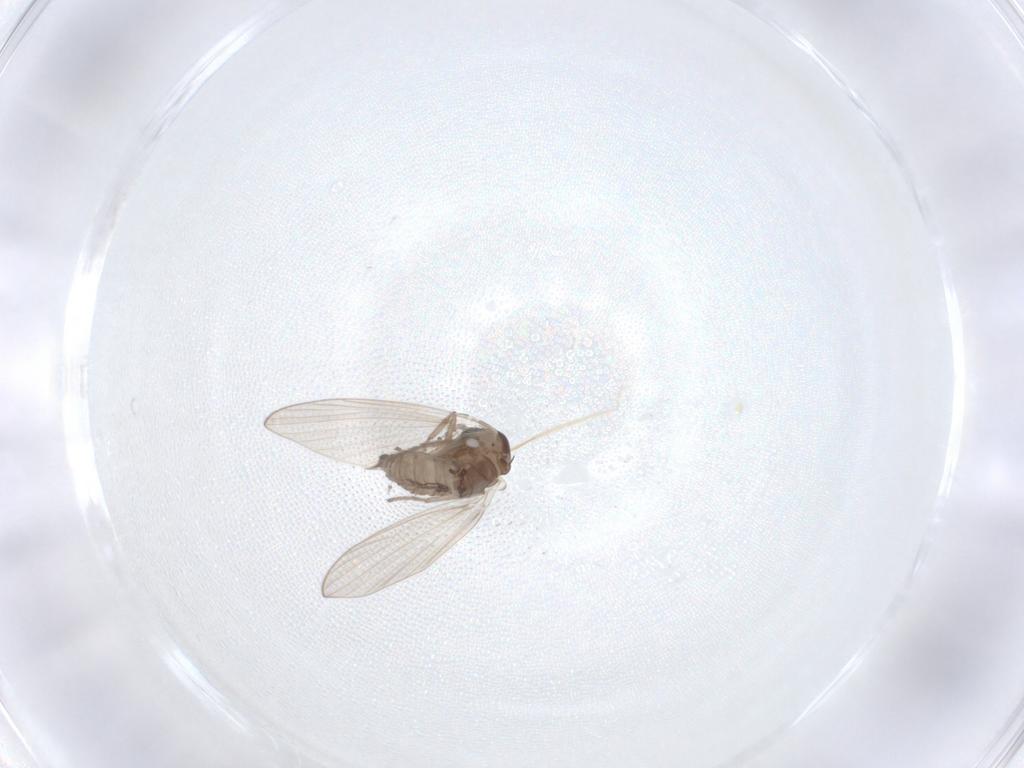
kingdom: Animalia
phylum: Arthropoda
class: Insecta
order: Diptera
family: Psychodidae
